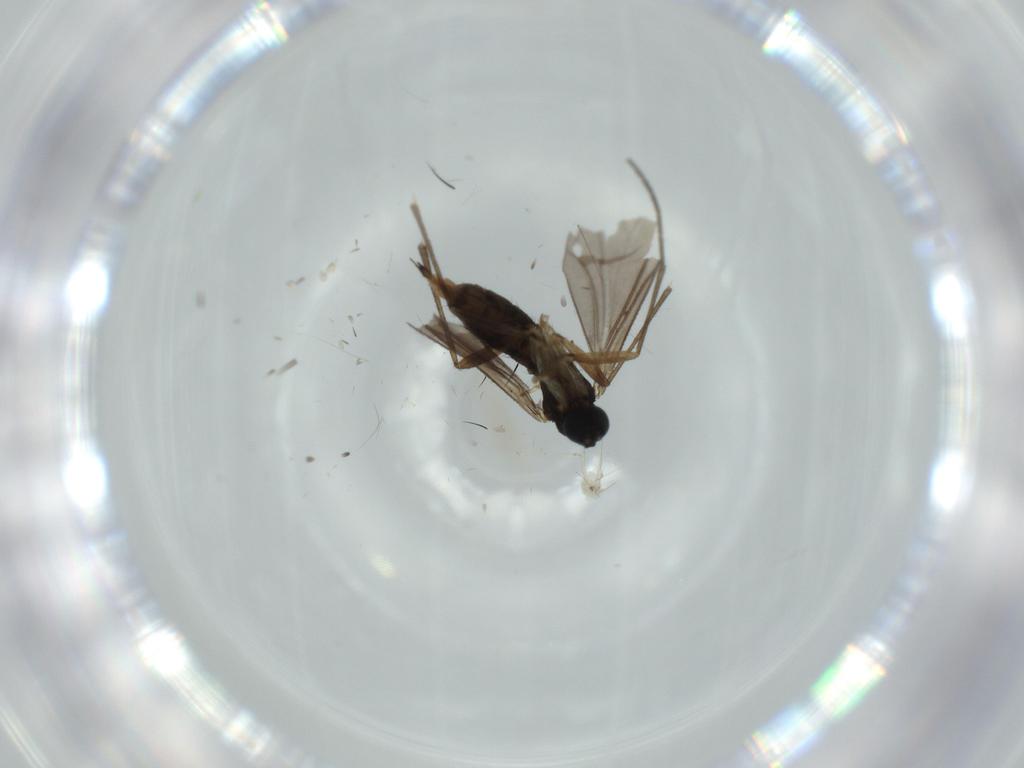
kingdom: Animalia
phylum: Arthropoda
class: Insecta
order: Diptera
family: Sciaridae
